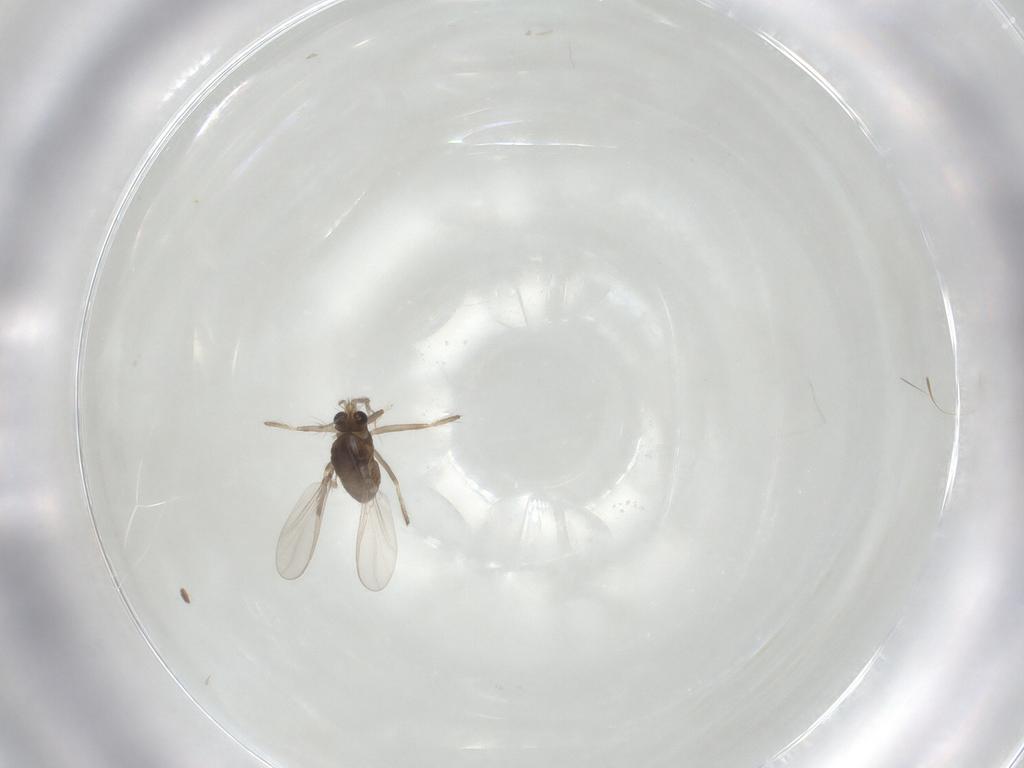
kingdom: Animalia
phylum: Arthropoda
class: Insecta
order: Diptera
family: Chironomidae
